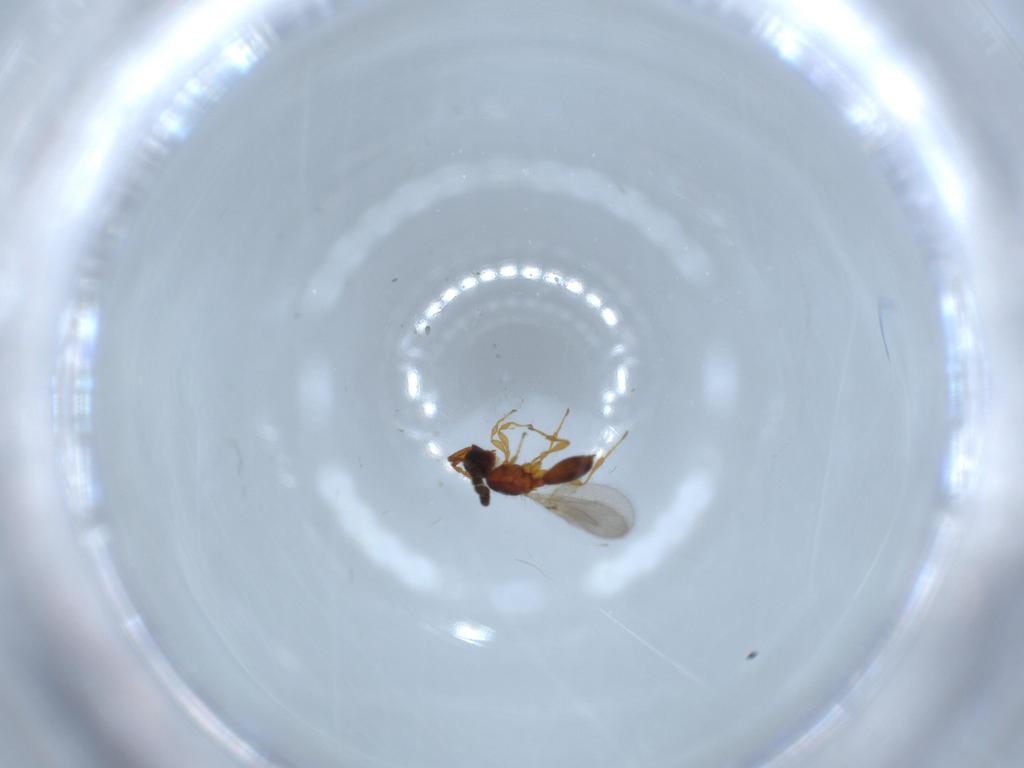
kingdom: Animalia
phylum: Arthropoda
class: Insecta
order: Hymenoptera
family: Diapriidae
